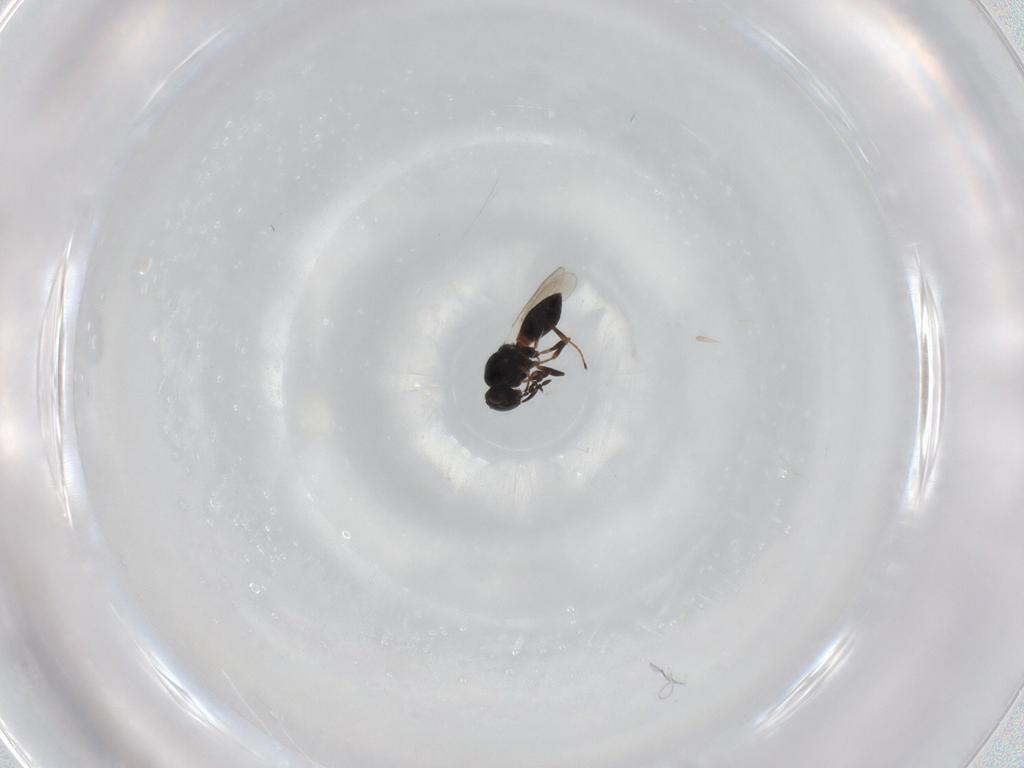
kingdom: Animalia
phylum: Arthropoda
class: Insecta
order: Hymenoptera
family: Platygastridae
